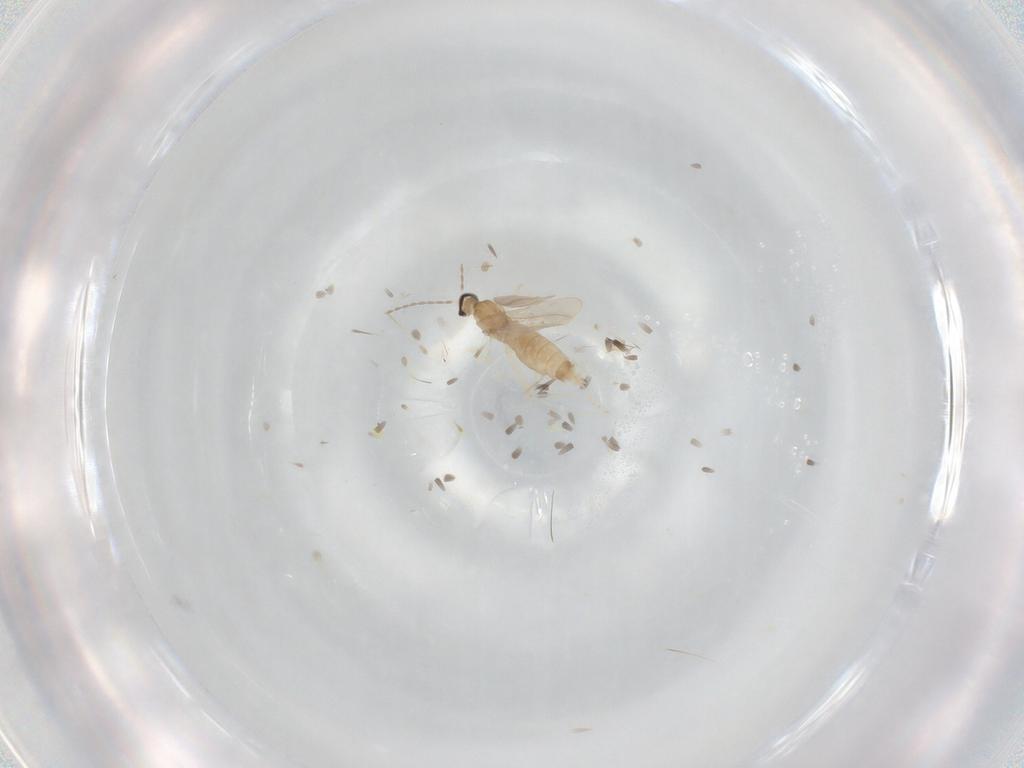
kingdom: Animalia
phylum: Arthropoda
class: Insecta
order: Diptera
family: Cecidomyiidae
